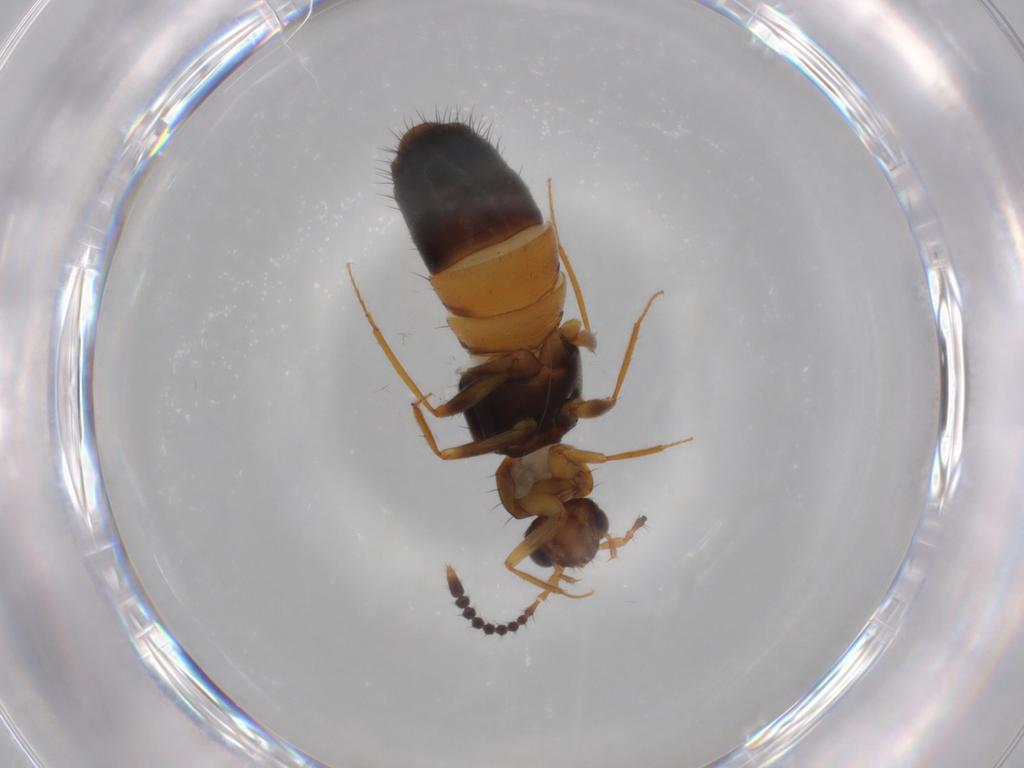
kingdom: Animalia
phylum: Arthropoda
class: Insecta
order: Coleoptera
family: Staphylinidae
